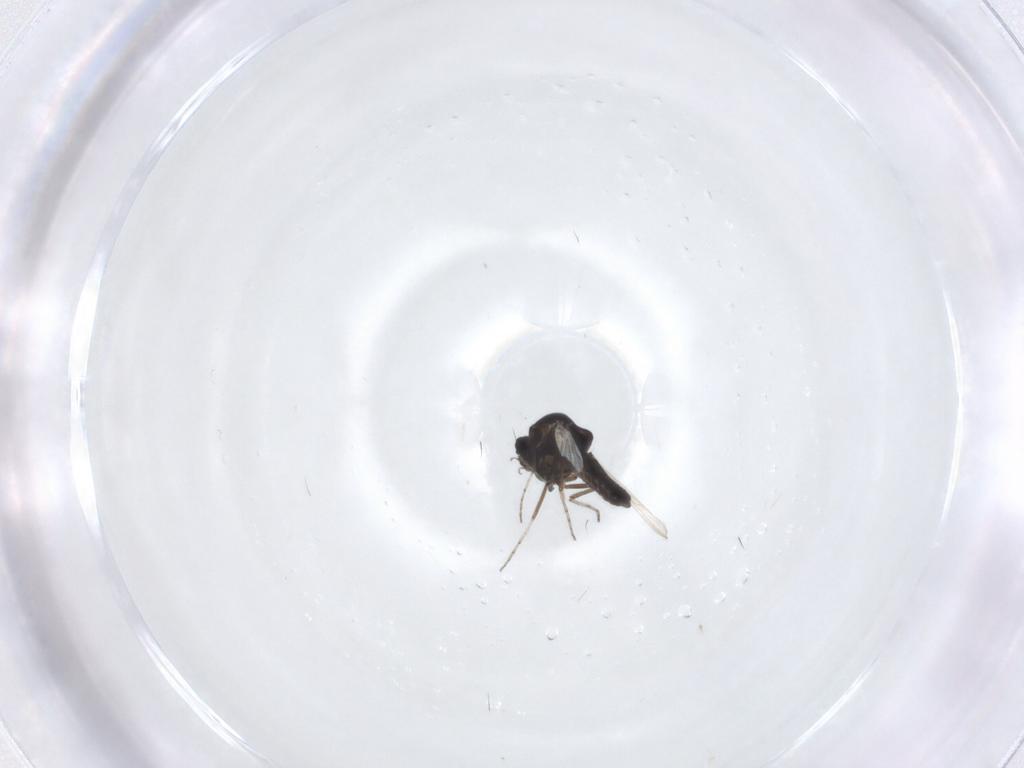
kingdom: Animalia
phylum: Arthropoda
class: Insecta
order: Diptera
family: Ceratopogonidae
